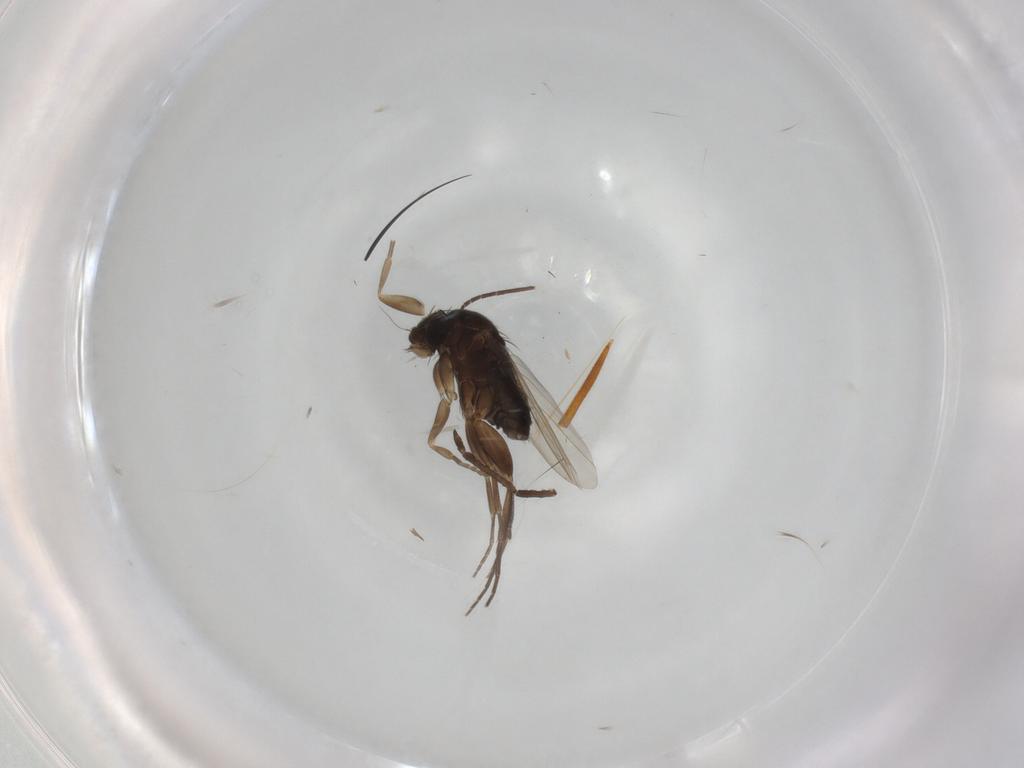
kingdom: Animalia
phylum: Arthropoda
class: Insecta
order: Diptera
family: Phoridae
